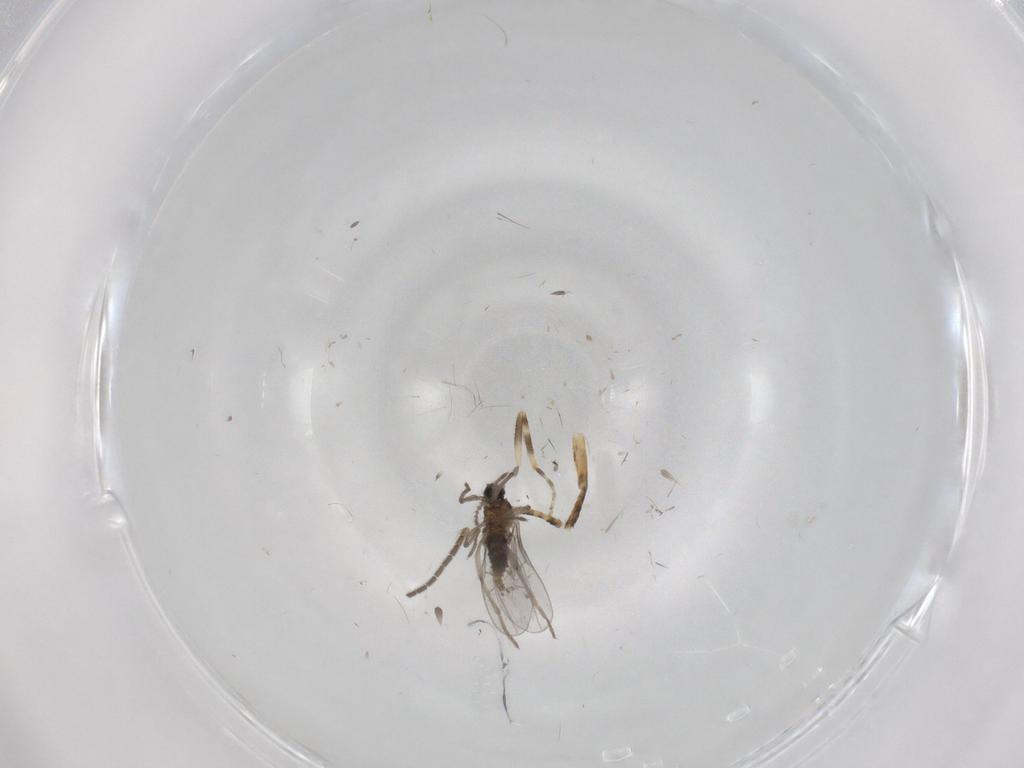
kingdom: Animalia
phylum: Arthropoda
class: Insecta
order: Diptera
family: Cecidomyiidae
